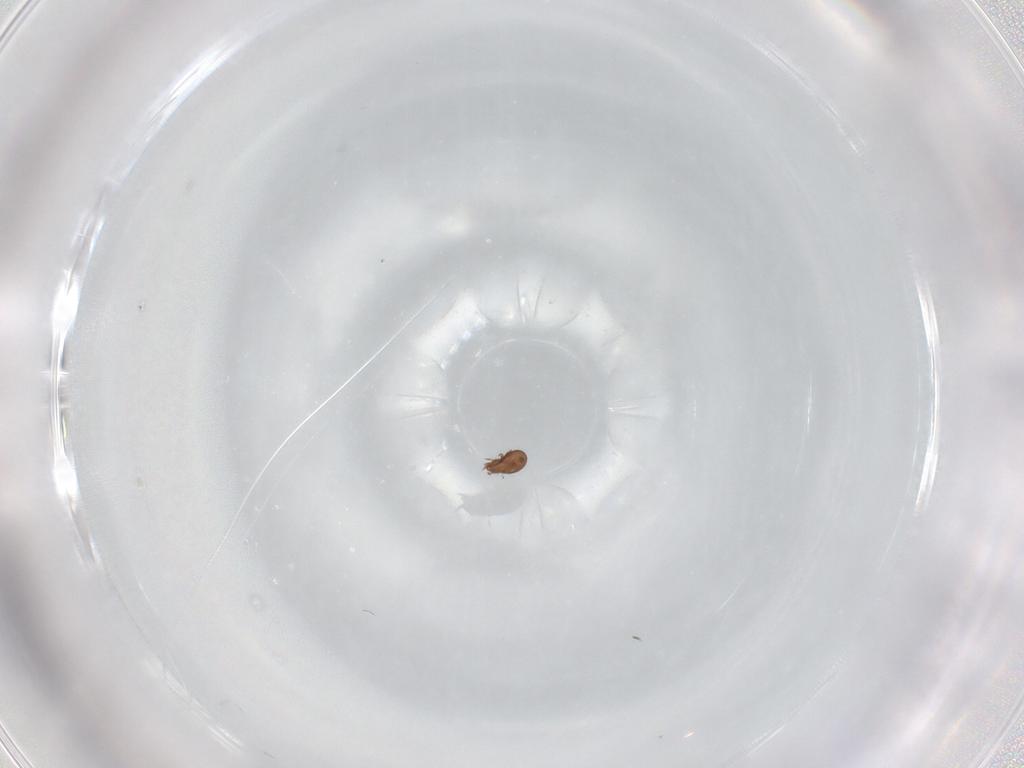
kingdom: Animalia
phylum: Arthropoda
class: Arachnida
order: Sarcoptiformes
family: Tectocepheidae
